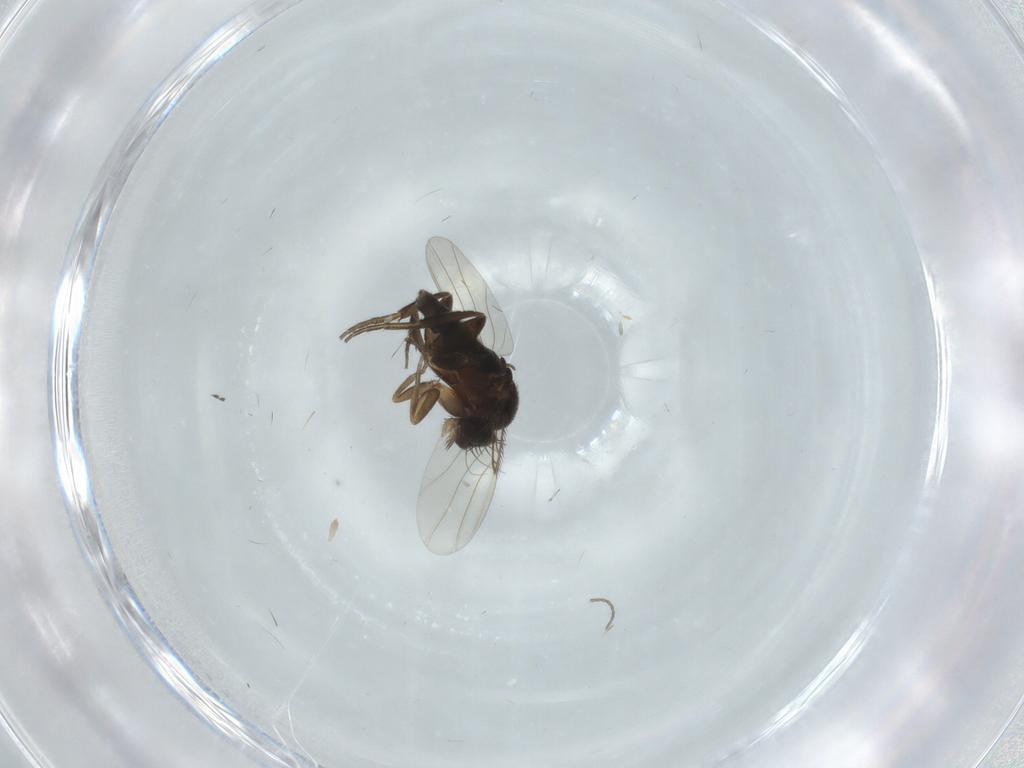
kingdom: Animalia
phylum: Arthropoda
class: Insecta
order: Diptera
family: Phoridae
